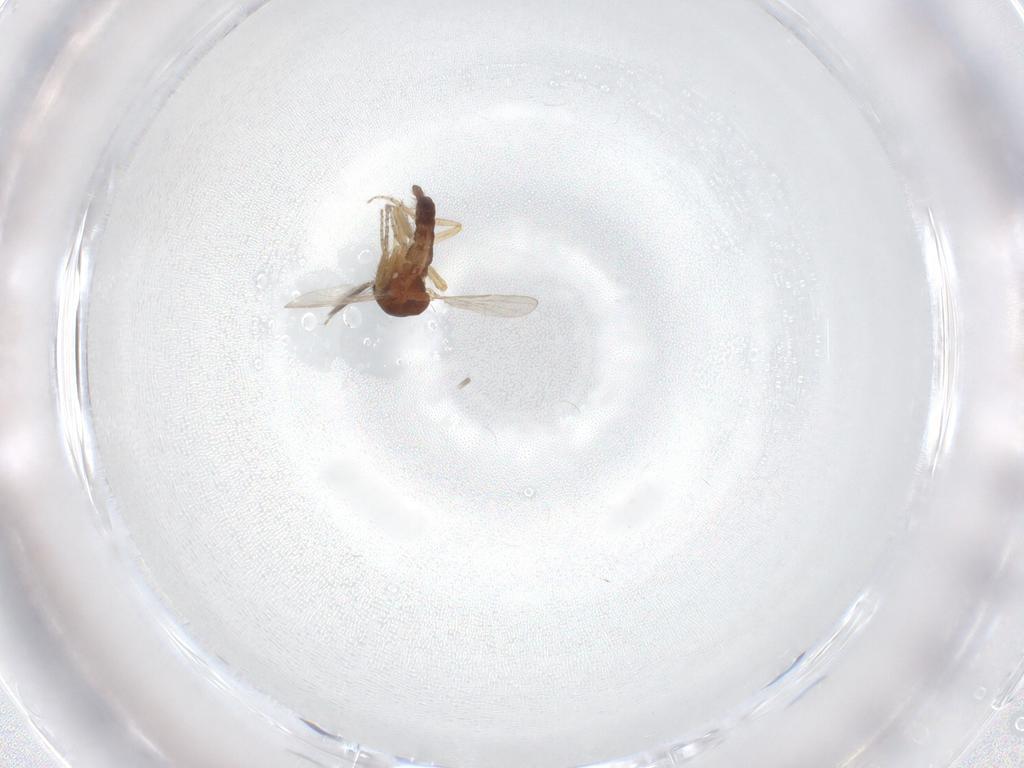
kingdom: Animalia
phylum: Arthropoda
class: Insecta
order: Diptera
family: Ceratopogonidae
